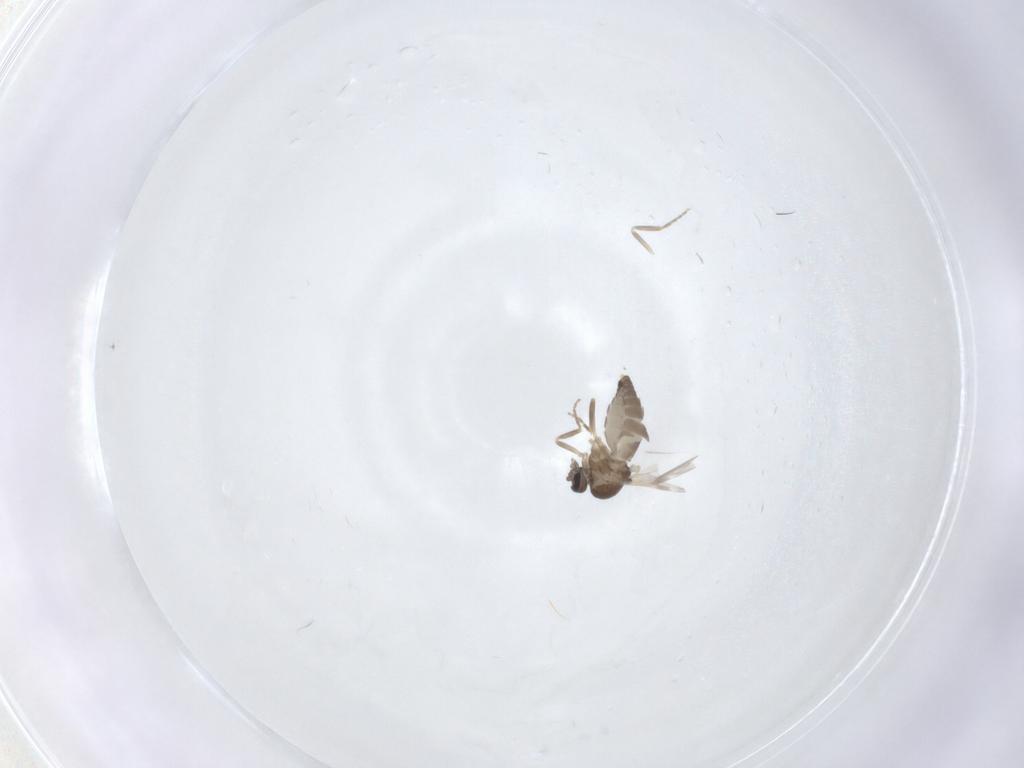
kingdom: Animalia
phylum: Arthropoda
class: Insecta
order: Diptera
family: Ceratopogonidae
